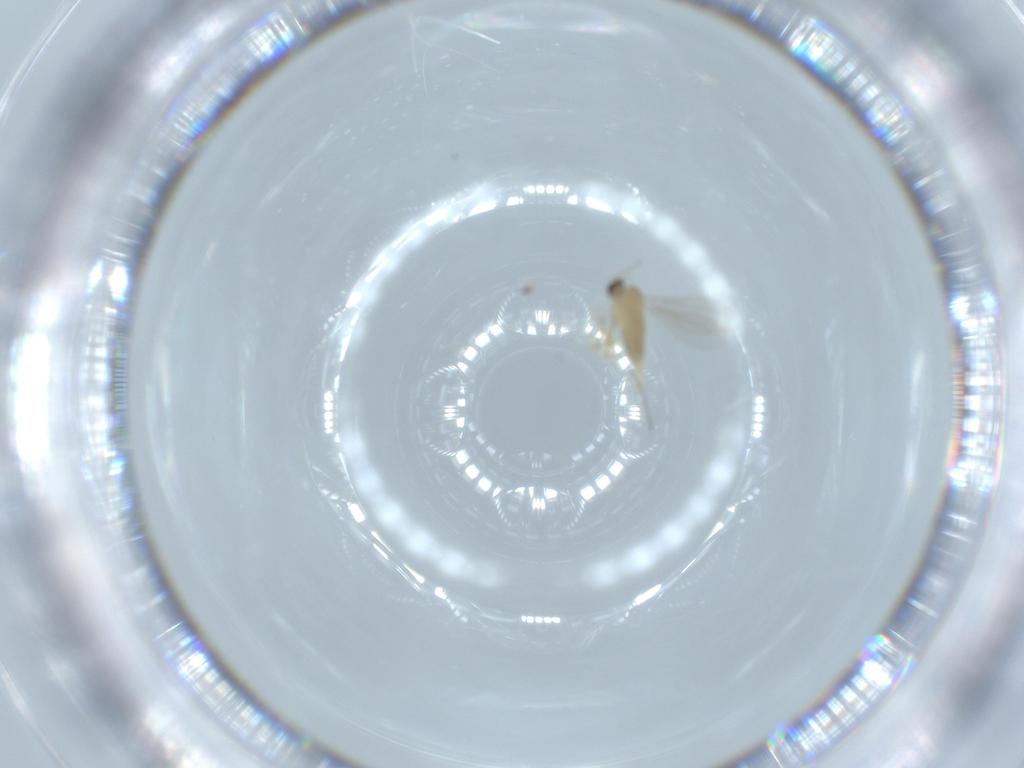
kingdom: Animalia
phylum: Arthropoda
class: Insecta
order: Diptera
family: Cecidomyiidae
